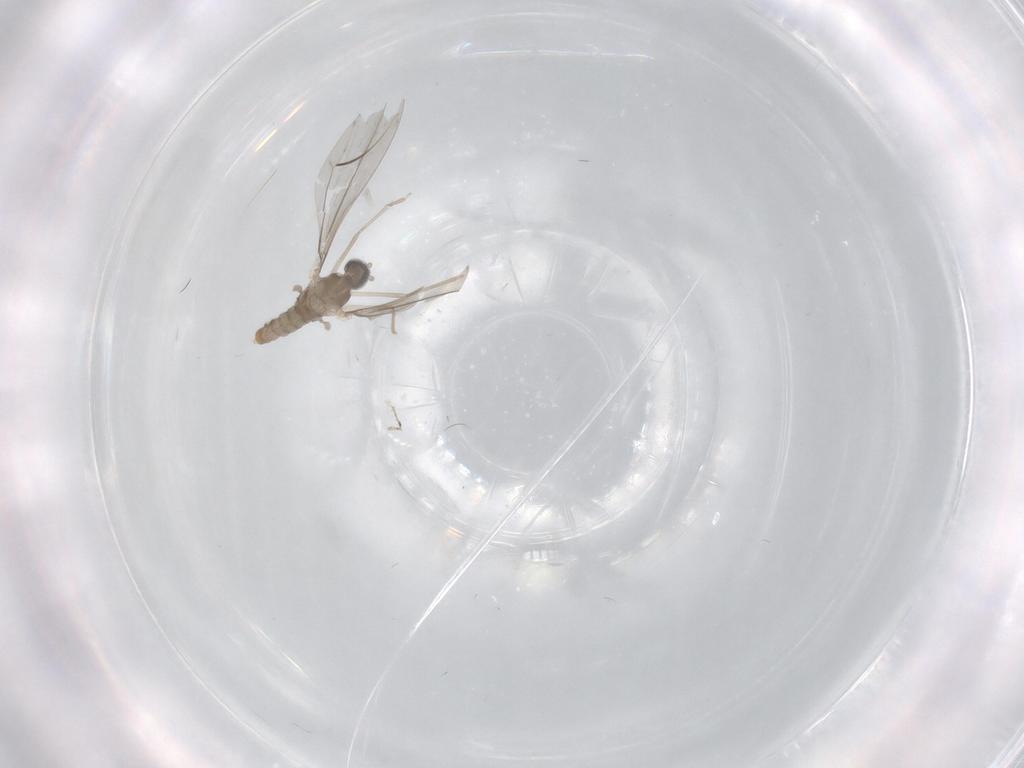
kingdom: Animalia
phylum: Arthropoda
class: Insecta
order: Diptera
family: Cecidomyiidae
